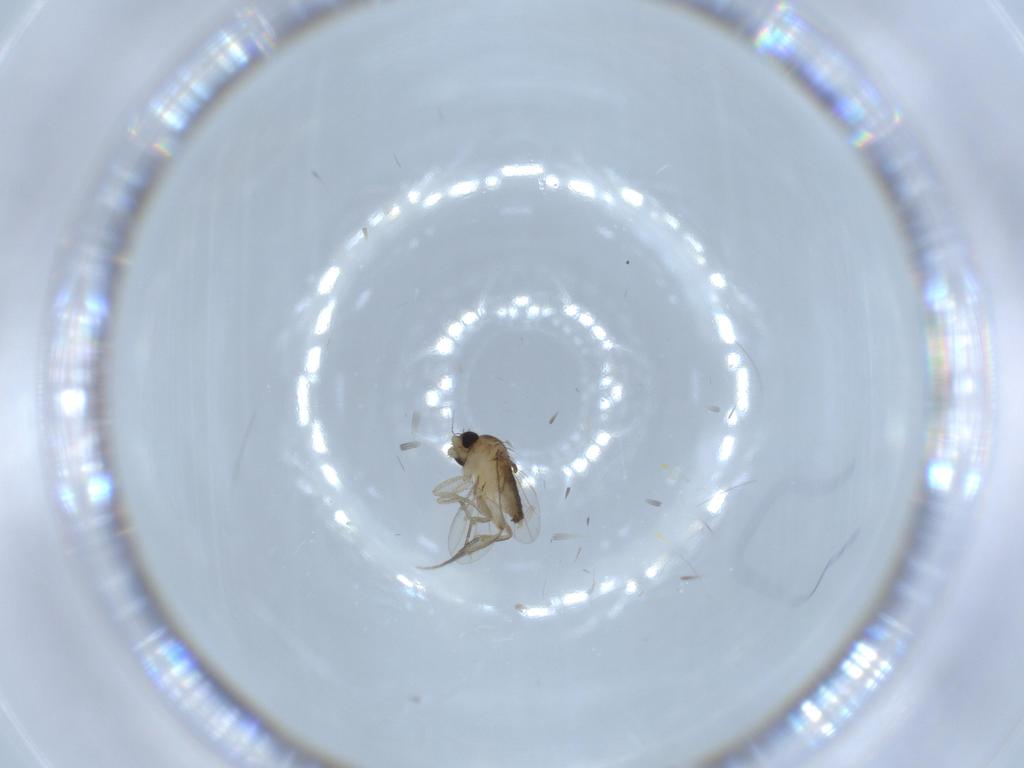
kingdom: Animalia
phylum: Arthropoda
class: Insecta
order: Diptera
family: Phoridae
